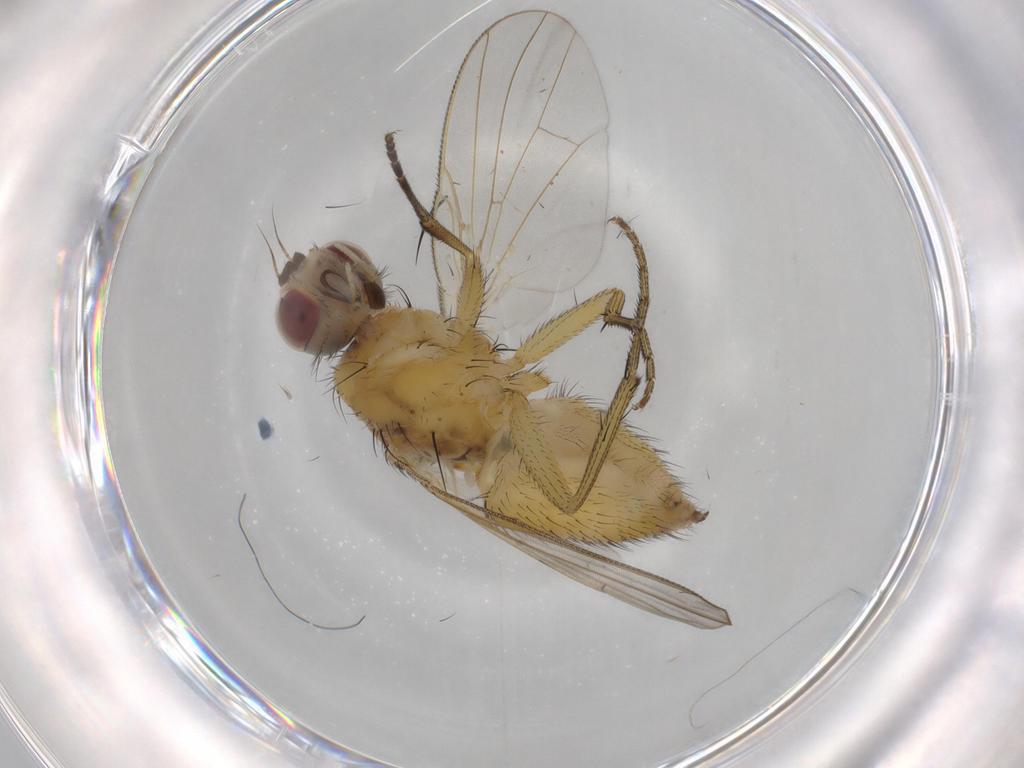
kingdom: Animalia
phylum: Arthropoda
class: Insecta
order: Diptera
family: Muscidae
